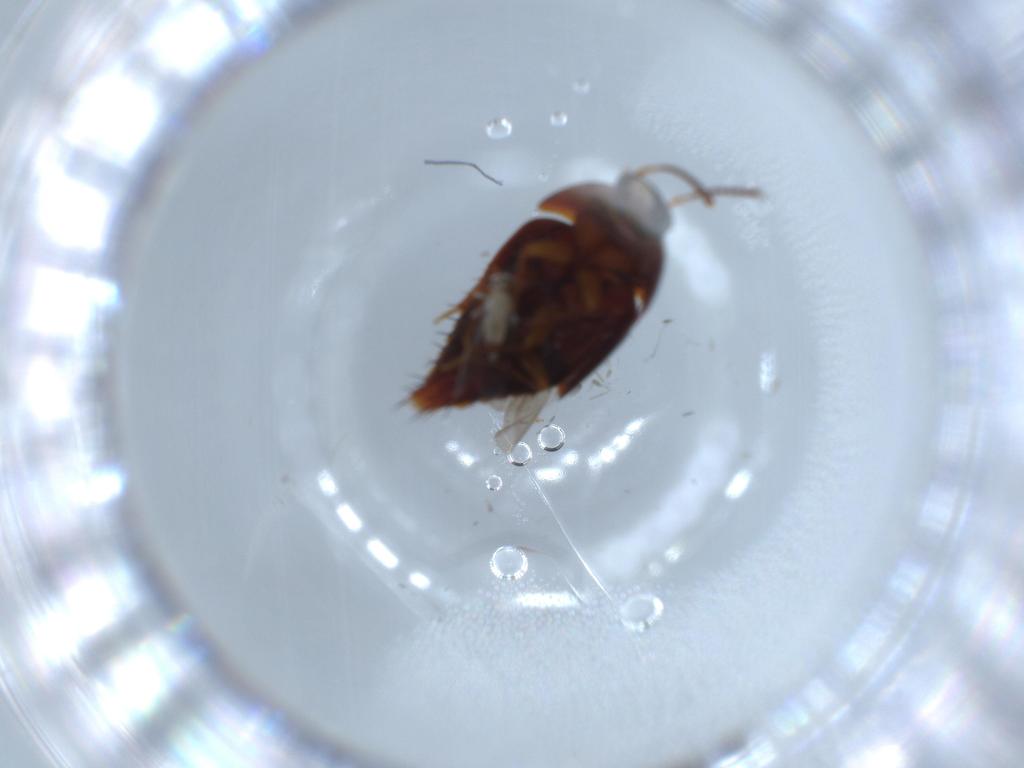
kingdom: Animalia
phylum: Arthropoda
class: Insecta
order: Coleoptera
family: Staphylinidae
